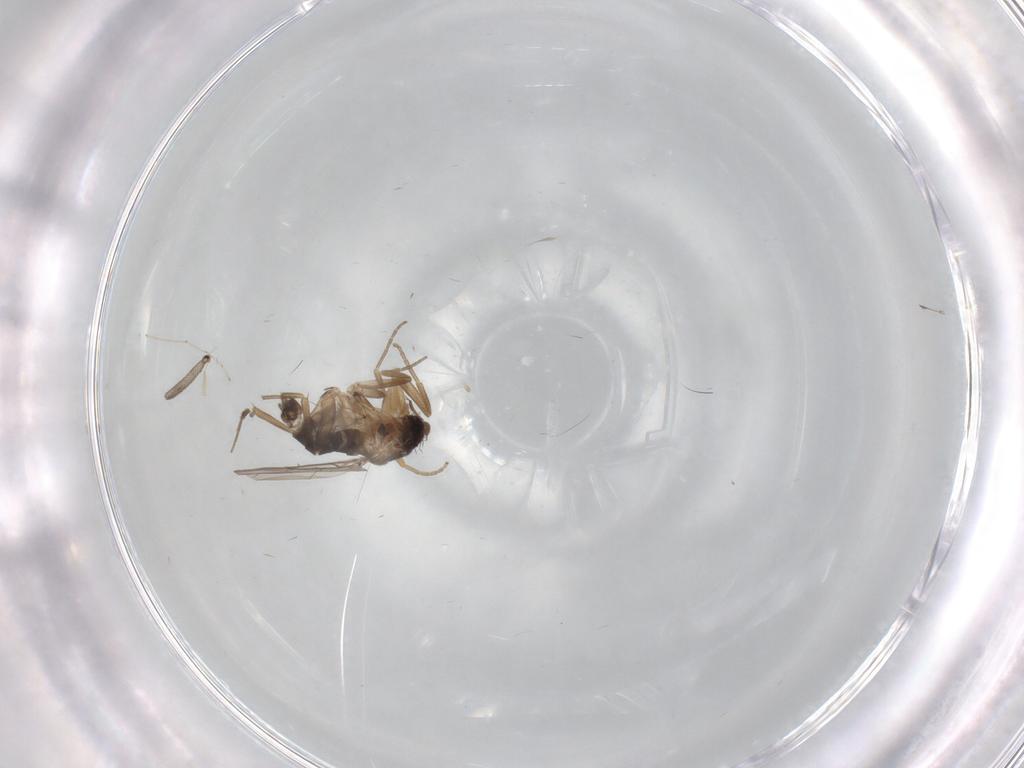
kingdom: Animalia
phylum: Arthropoda
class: Insecta
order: Diptera
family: Phoridae
